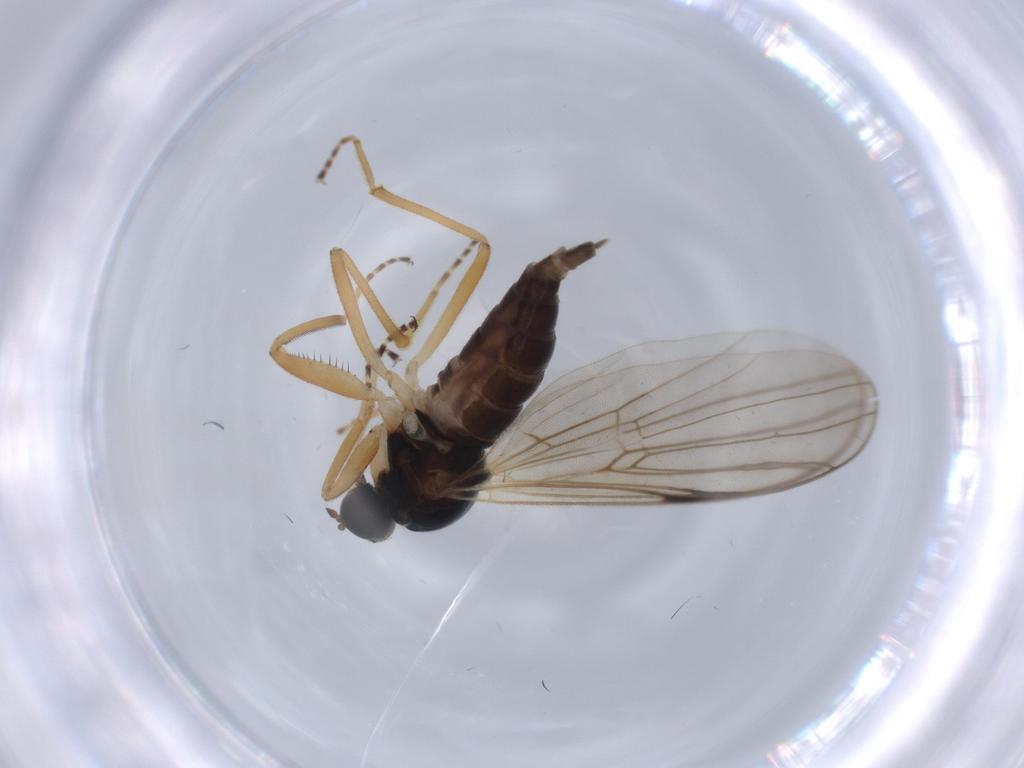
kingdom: Animalia
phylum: Arthropoda
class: Insecta
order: Diptera
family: Hybotidae
